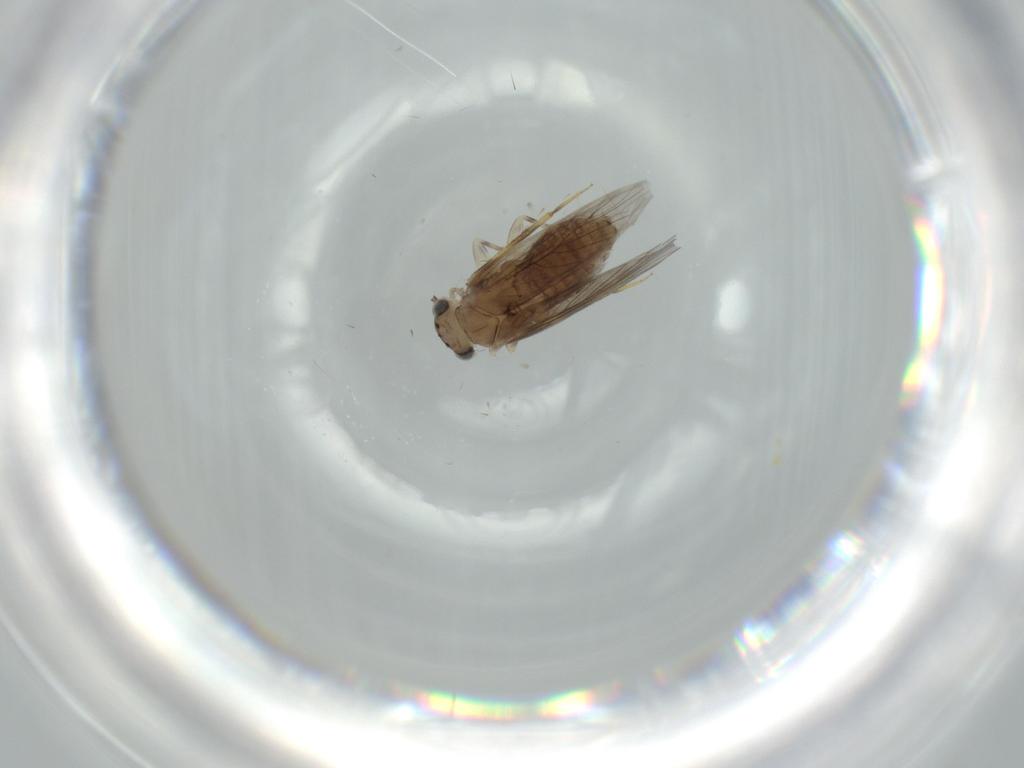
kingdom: Animalia
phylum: Arthropoda
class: Insecta
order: Psocodea
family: Lepidopsocidae
